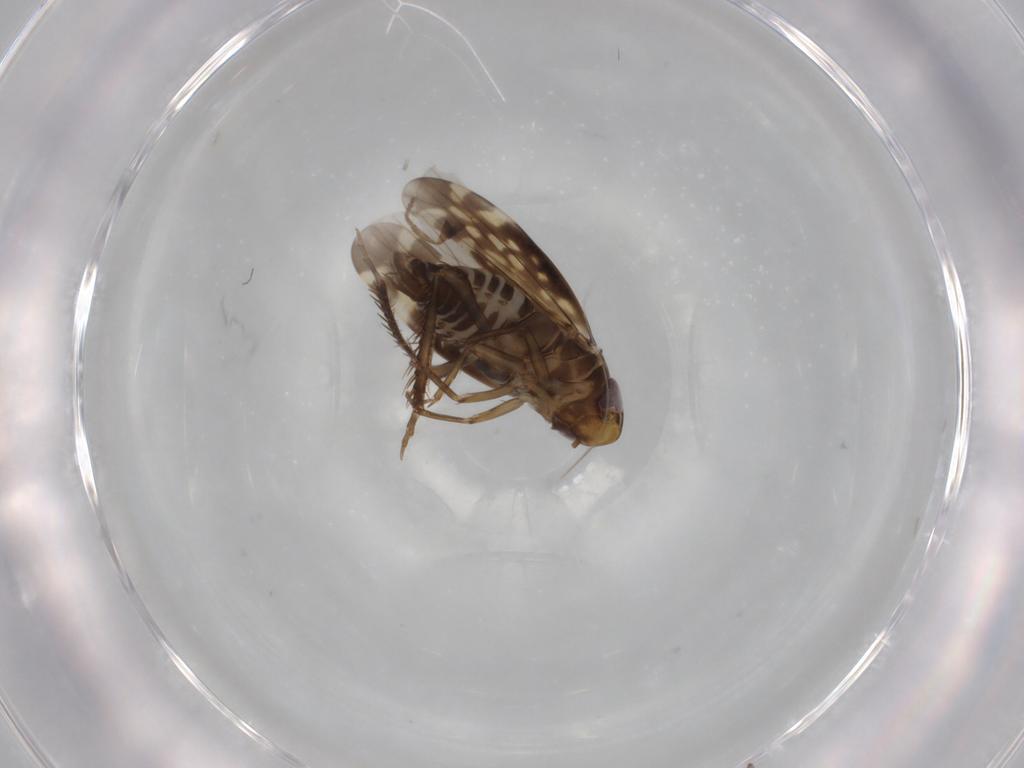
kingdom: Animalia
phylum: Arthropoda
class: Insecta
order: Hemiptera
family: Cicadellidae
